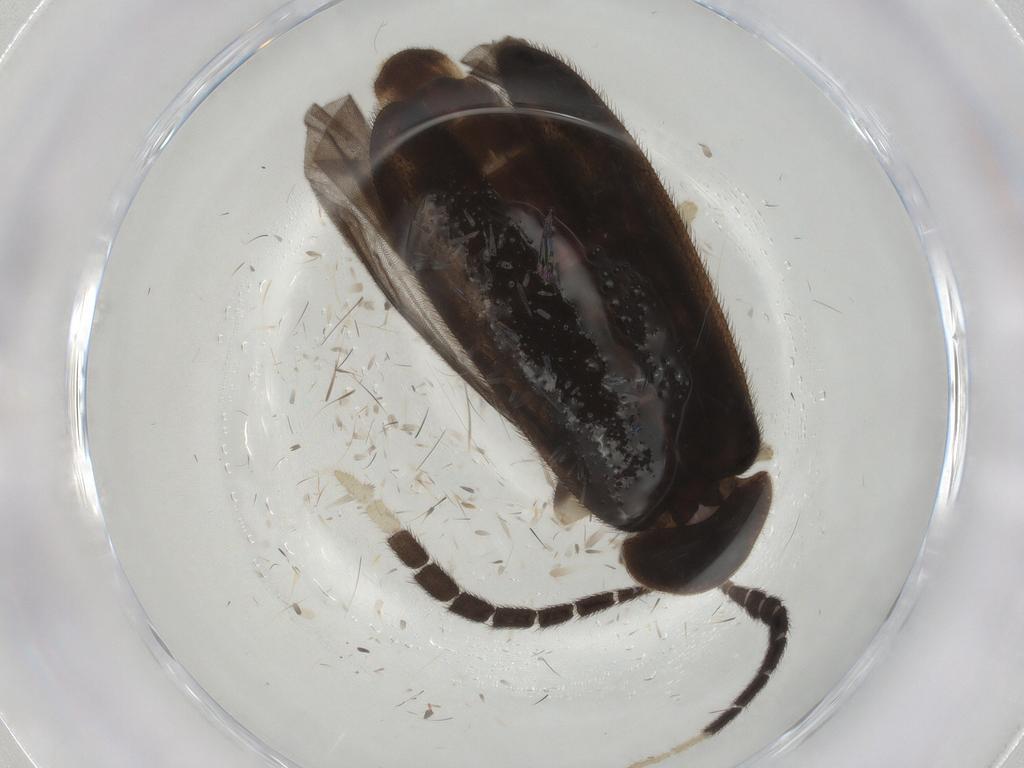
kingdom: Animalia
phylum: Arthropoda
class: Insecta
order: Coleoptera
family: Lampyridae
